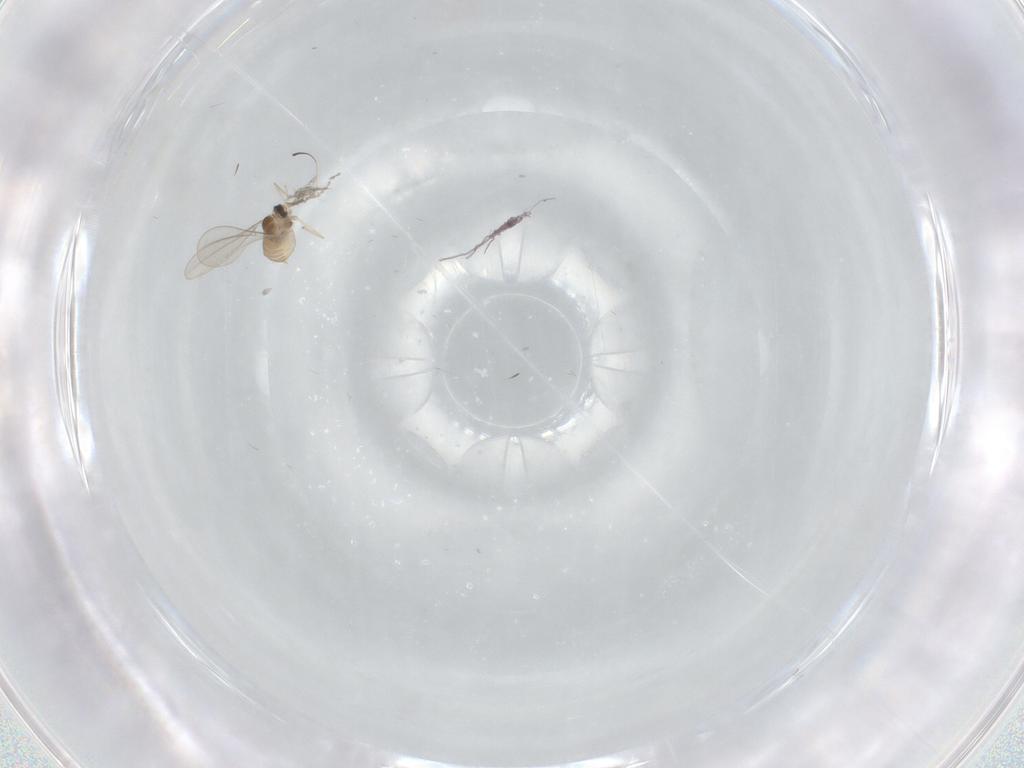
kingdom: Animalia
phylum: Arthropoda
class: Insecta
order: Diptera
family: Cecidomyiidae
